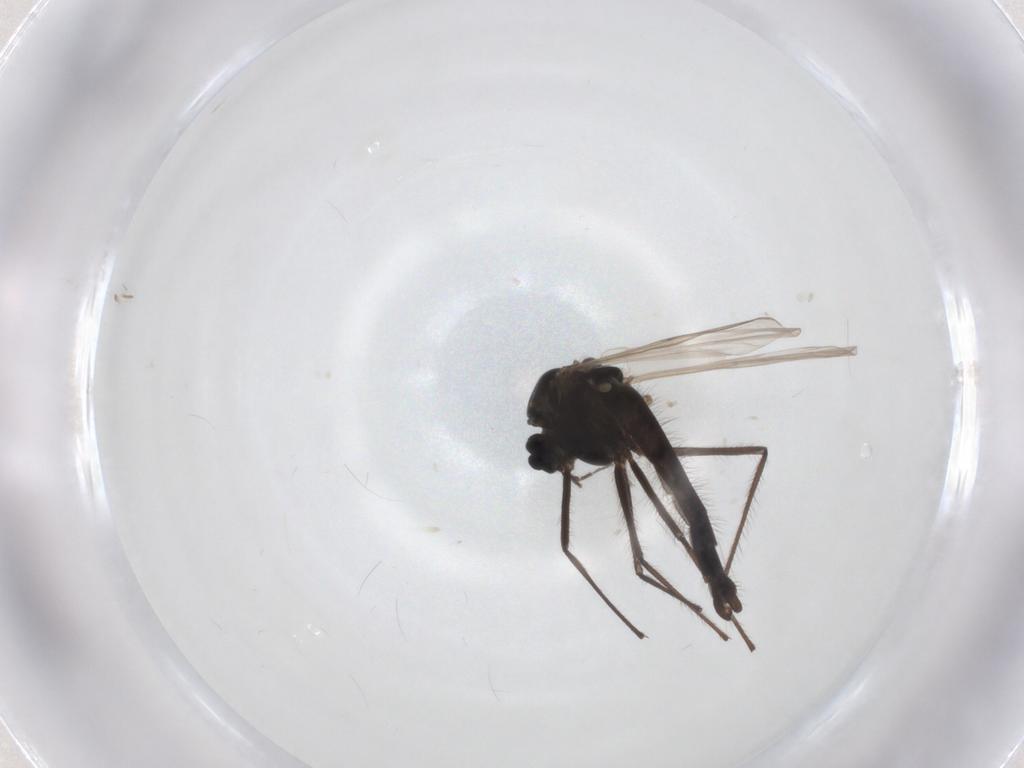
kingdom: Animalia
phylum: Arthropoda
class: Insecta
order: Diptera
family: Chironomidae
